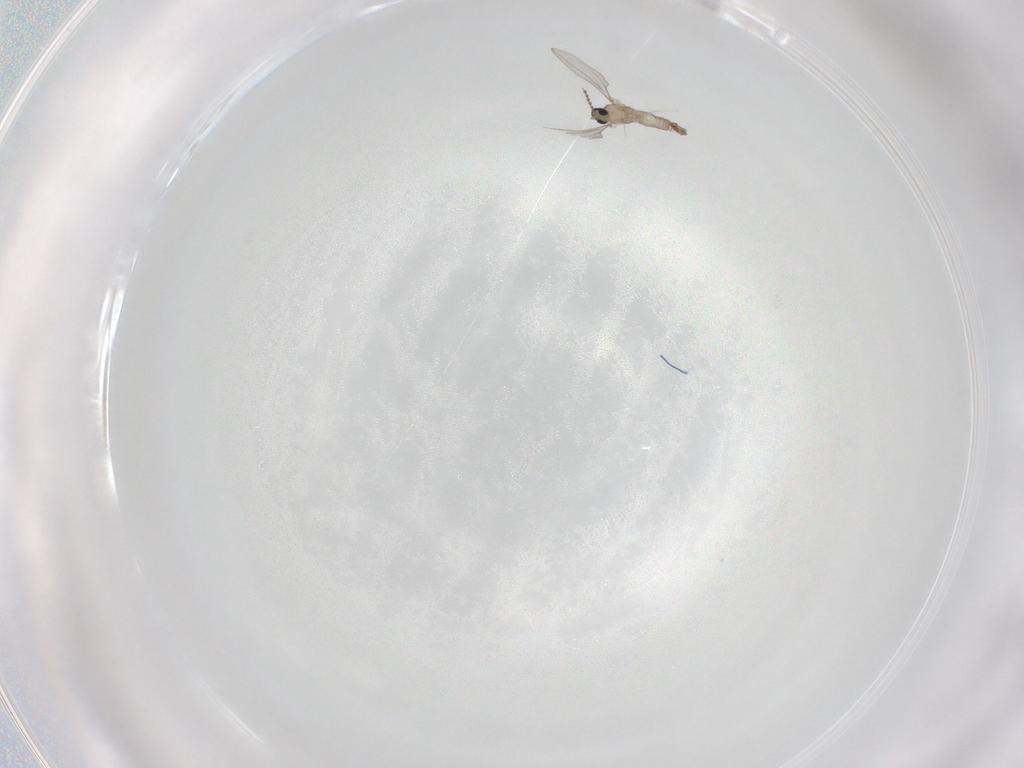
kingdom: Animalia
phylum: Arthropoda
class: Insecta
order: Diptera
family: Cecidomyiidae
